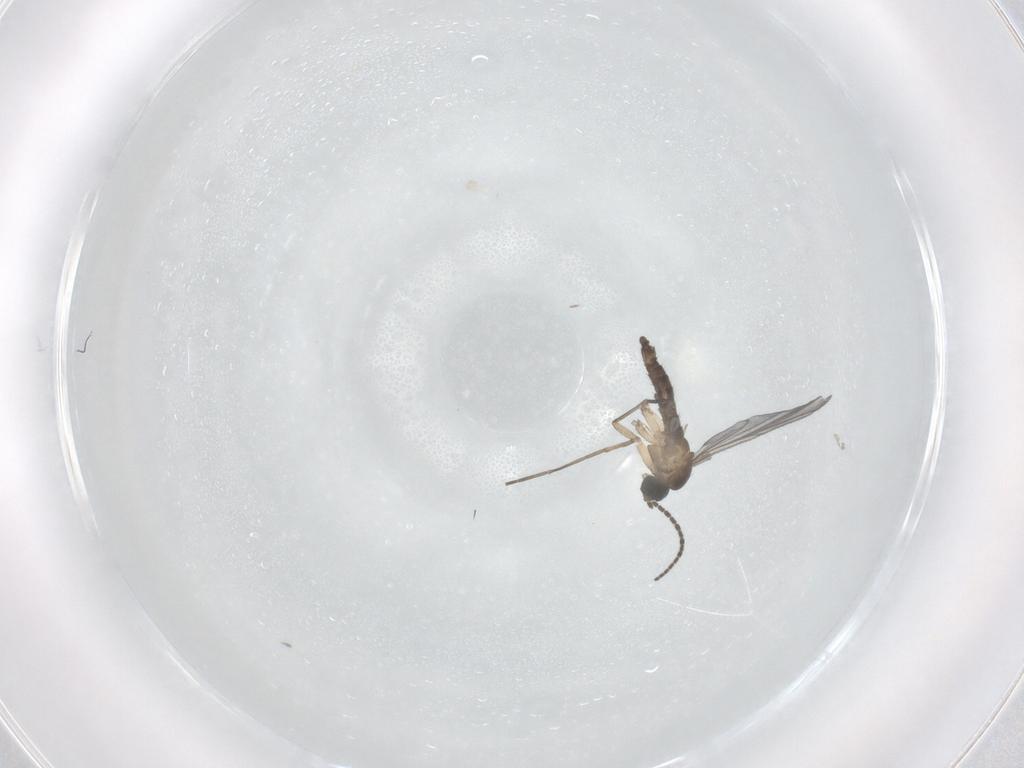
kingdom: Animalia
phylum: Arthropoda
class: Insecta
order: Diptera
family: Sciaridae
